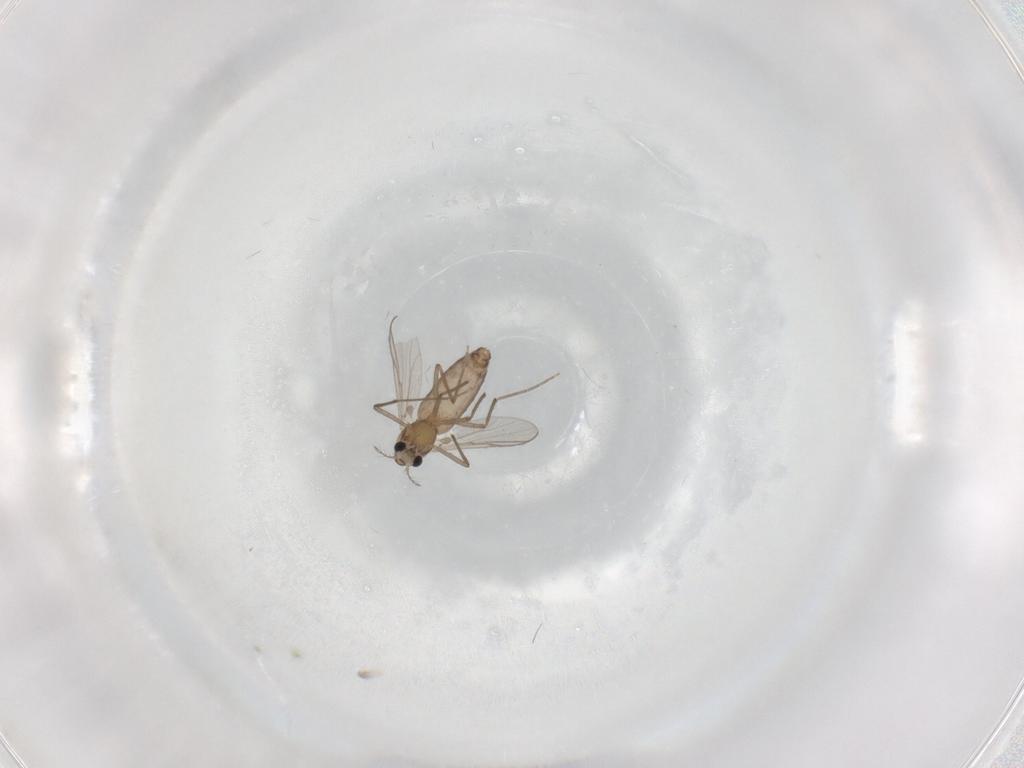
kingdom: Animalia
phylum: Arthropoda
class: Insecta
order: Diptera
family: Chironomidae
